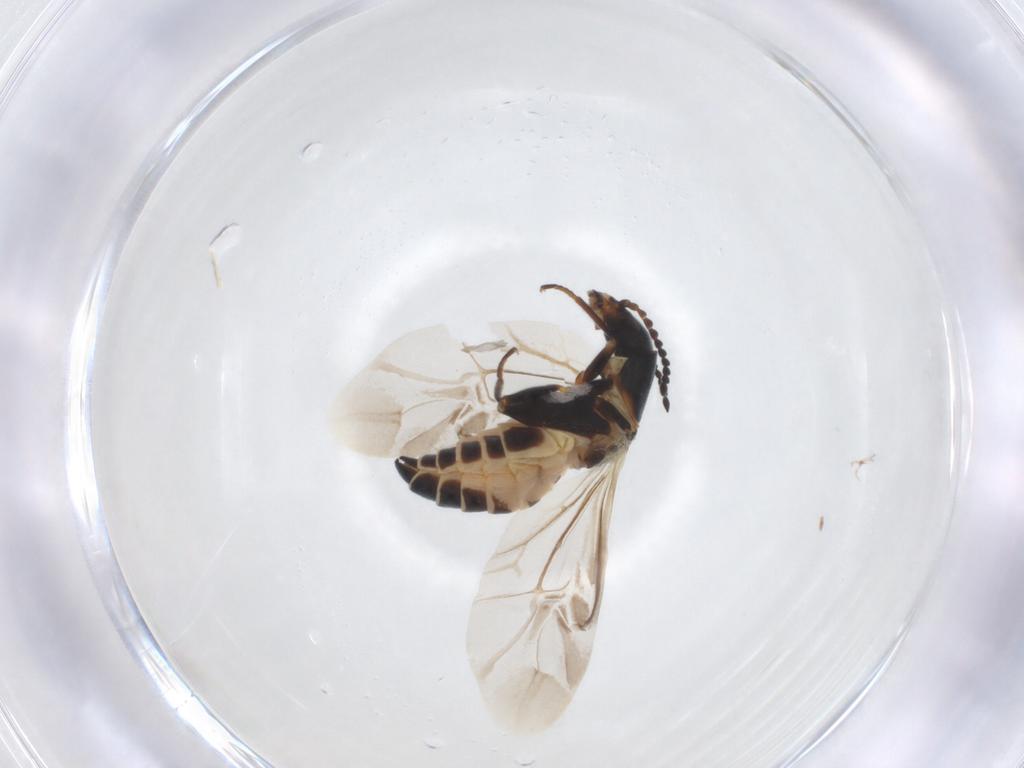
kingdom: Animalia
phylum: Arthropoda
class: Insecta
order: Coleoptera
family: Melyridae
